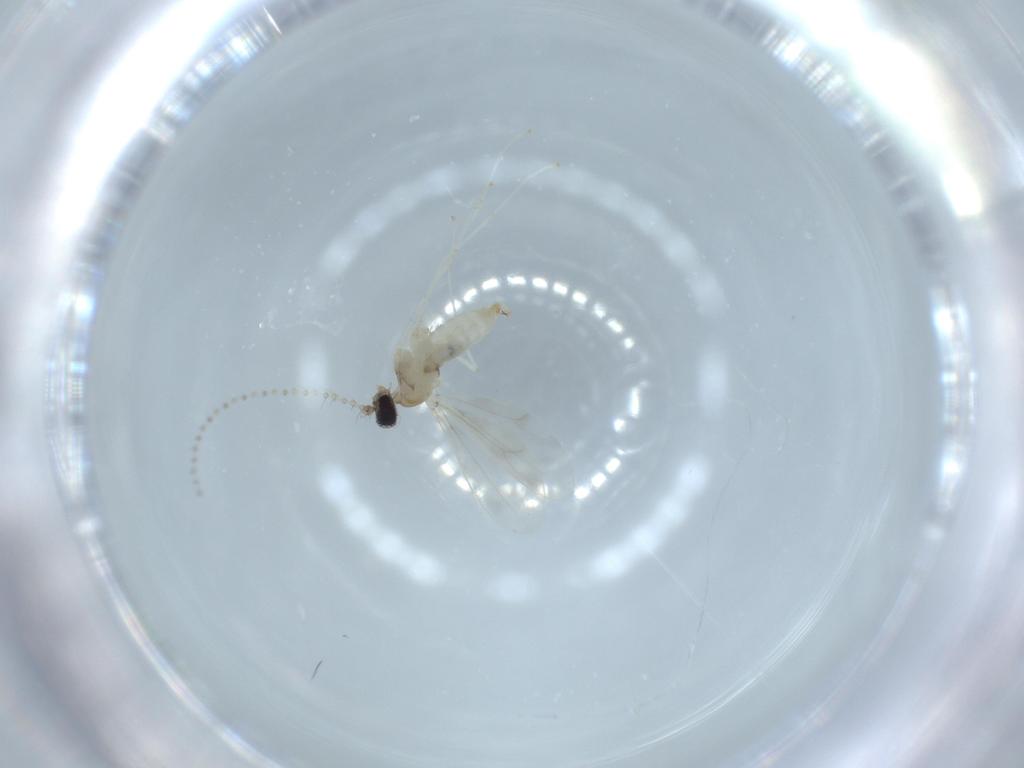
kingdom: Animalia
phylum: Arthropoda
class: Insecta
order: Diptera
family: Cecidomyiidae
